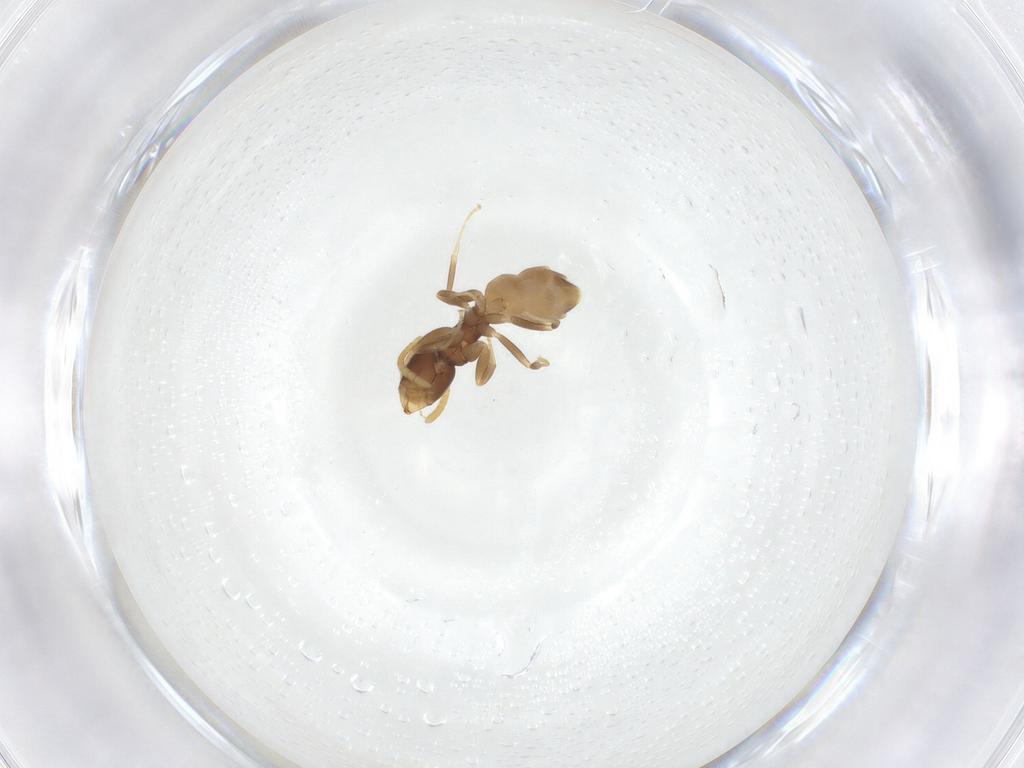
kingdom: Animalia
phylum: Arthropoda
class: Insecta
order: Hymenoptera
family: Formicidae
